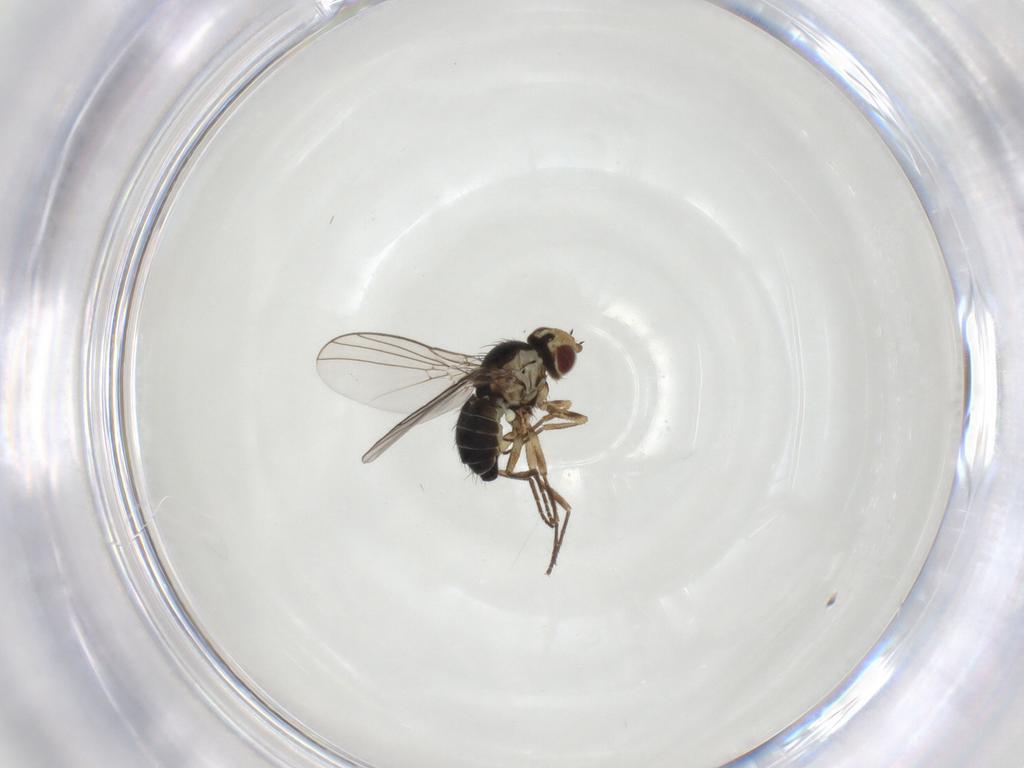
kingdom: Animalia
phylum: Arthropoda
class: Insecta
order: Diptera
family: Agromyzidae
